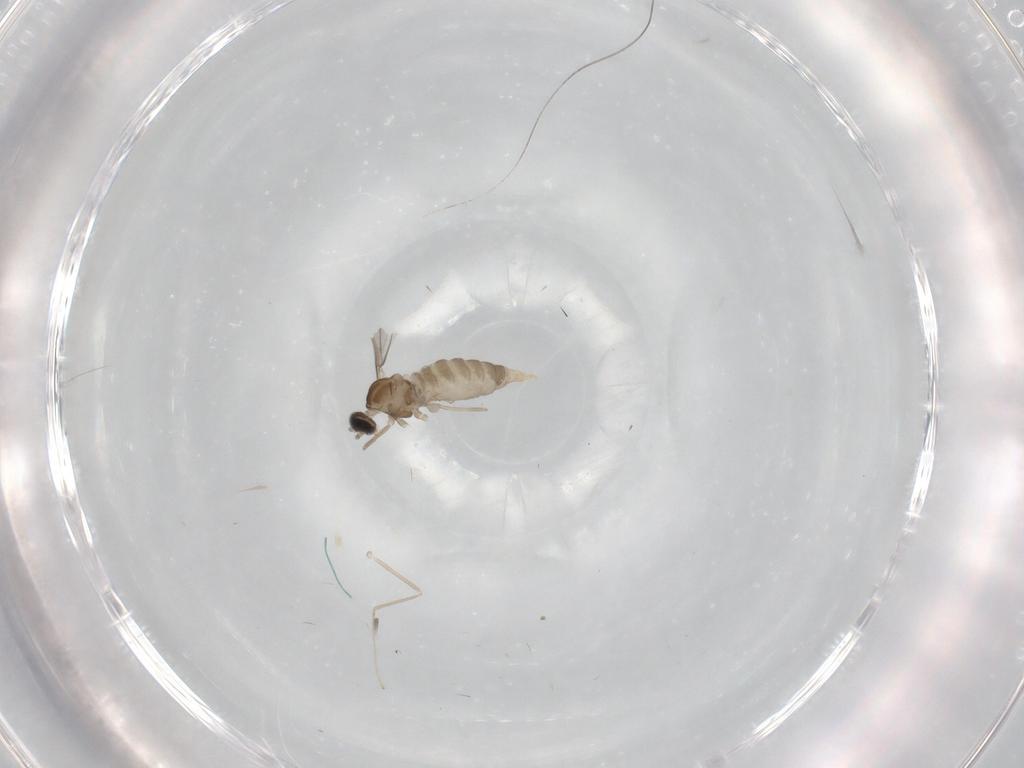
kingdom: Animalia
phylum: Arthropoda
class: Insecta
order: Diptera
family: Cecidomyiidae
